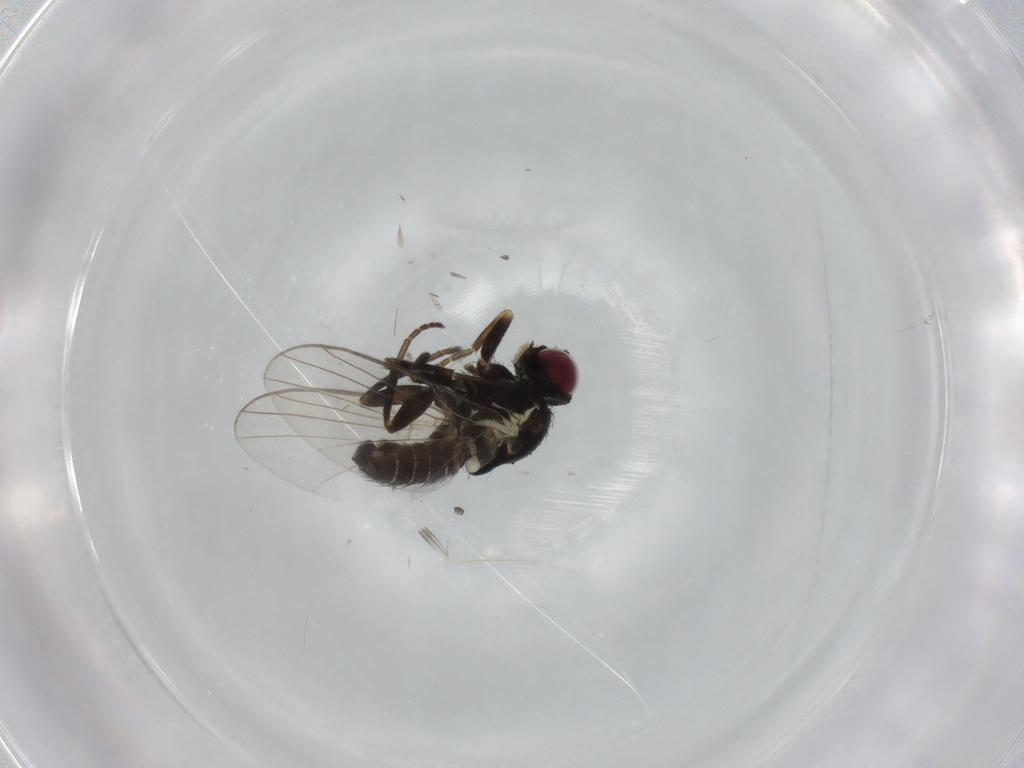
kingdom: Animalia
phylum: Arthropoda
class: Insecta
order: Diptera
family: Agromyzidae
